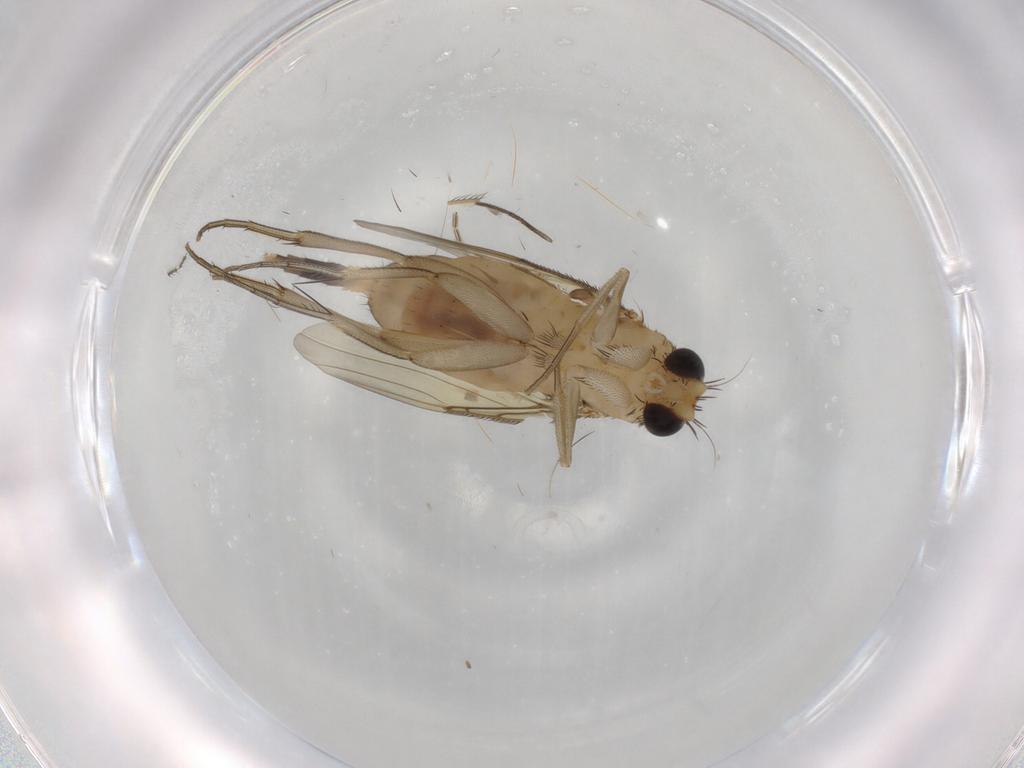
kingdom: Animalia
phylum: Arthropoda
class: Insecta
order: Diptera
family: Phoridae
